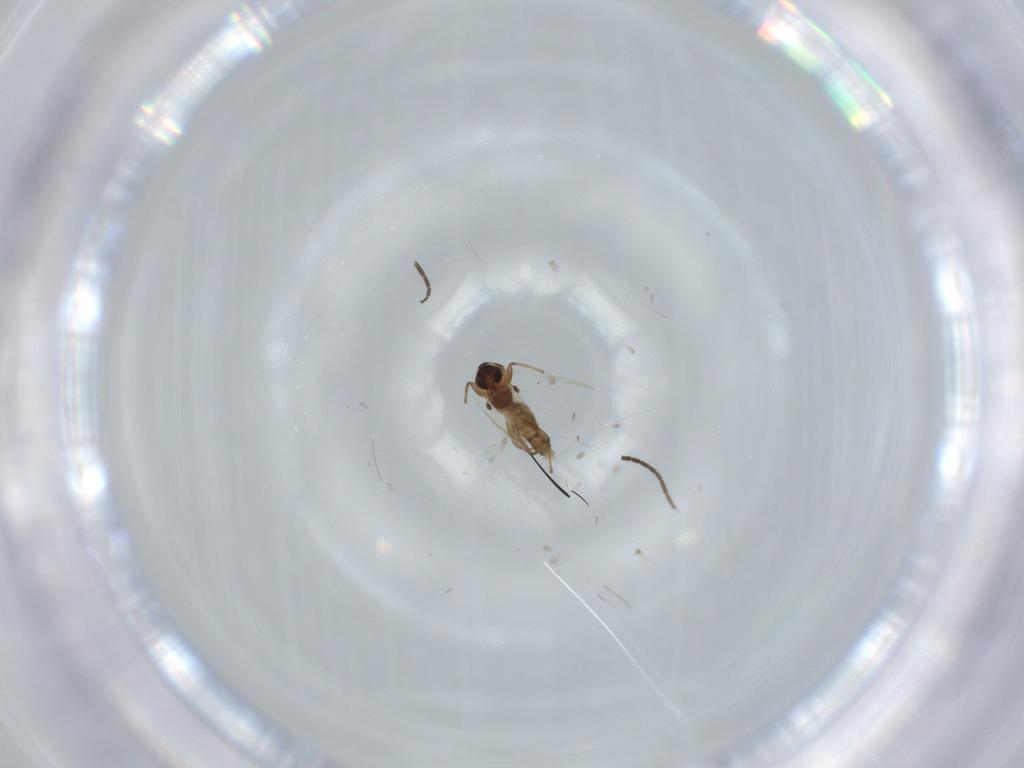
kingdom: Animalia
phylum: Arthropoda
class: Insecta
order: Diptera
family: Chironomidae
